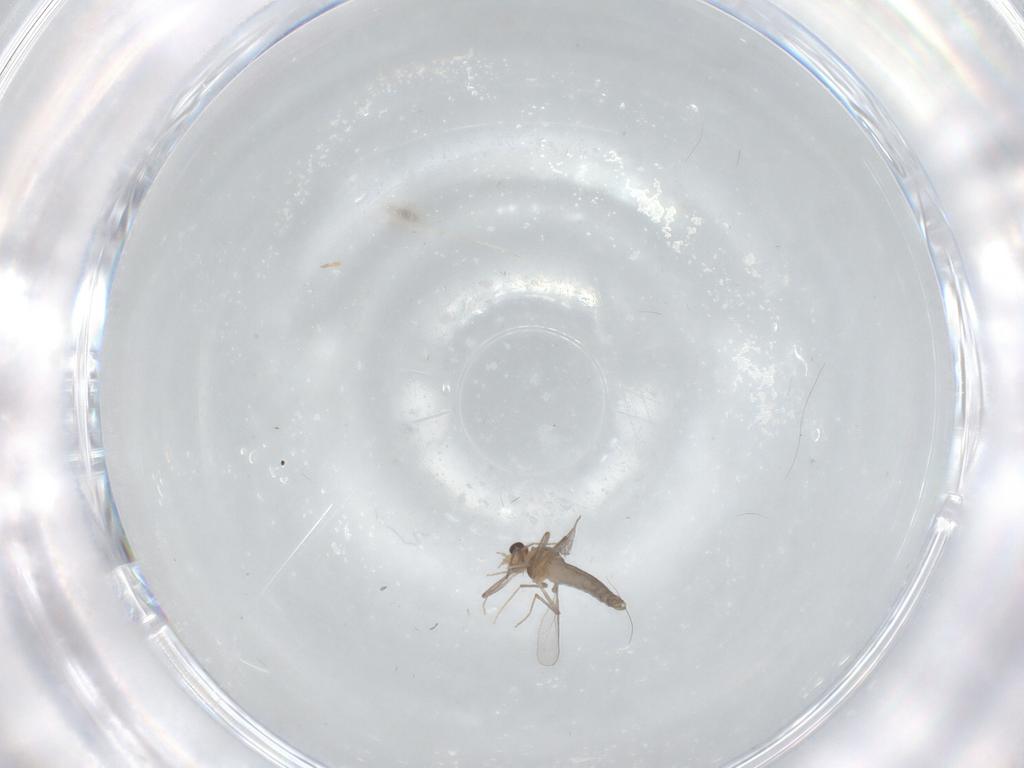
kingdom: Animalia
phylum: Arthropoda
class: Insecta
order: Diptera
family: Chironomidae
